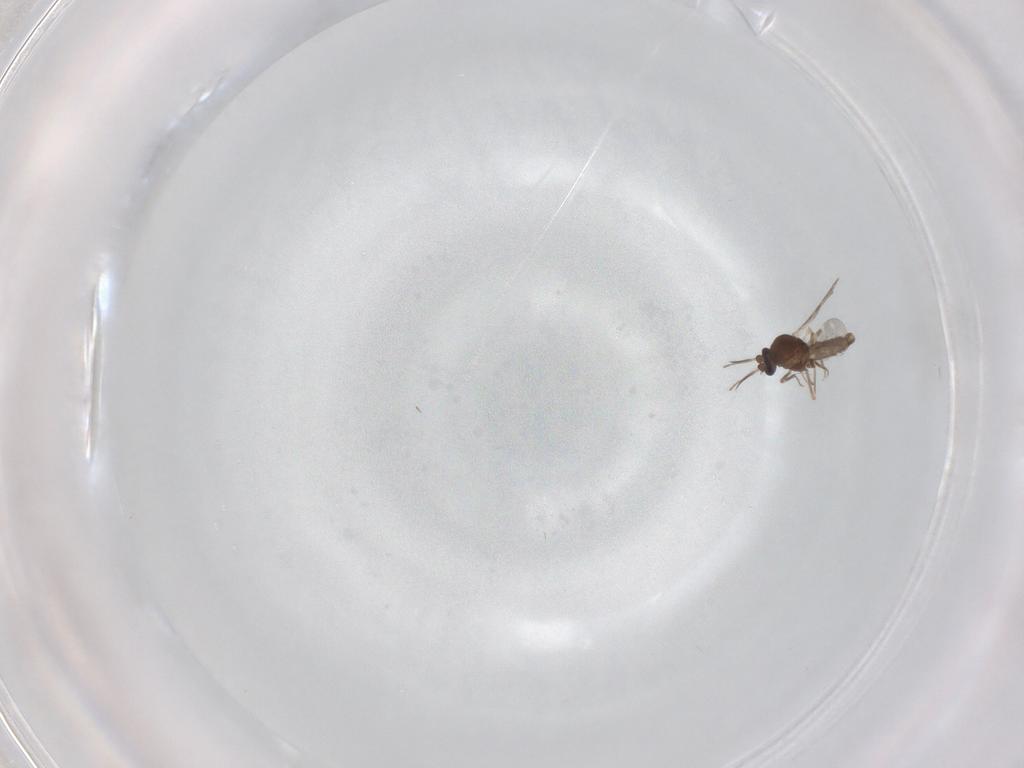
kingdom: Animalia
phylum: Arthropoda
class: Insecta
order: Diptera
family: Ceratopogonidae
